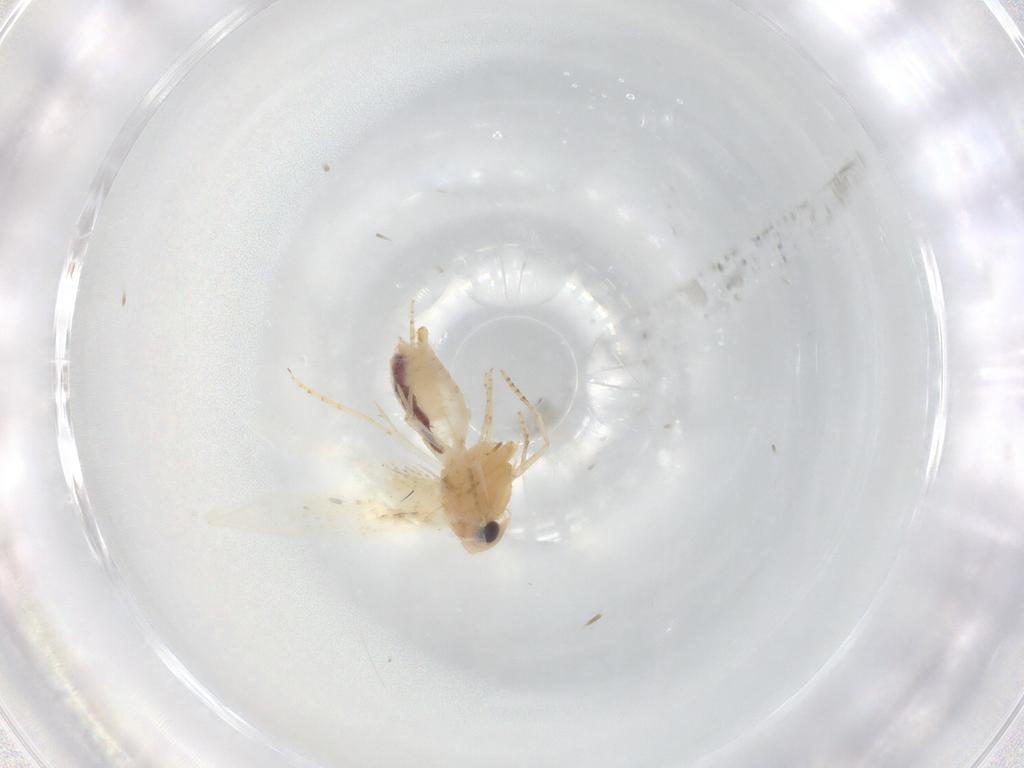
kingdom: Animalia
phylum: Arthropoda
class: Insecta
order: Lepidoptera
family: Bucculatricidae
